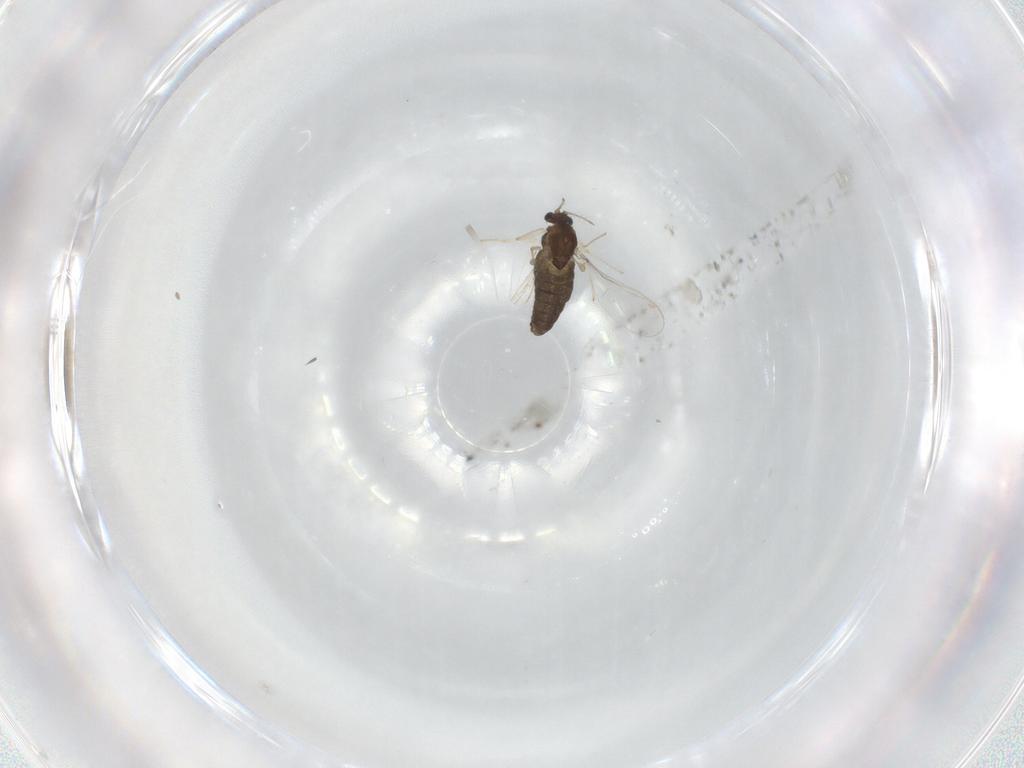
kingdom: Animalia
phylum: Arthropoda
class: Insecta
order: Diptera
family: Chironomidae
